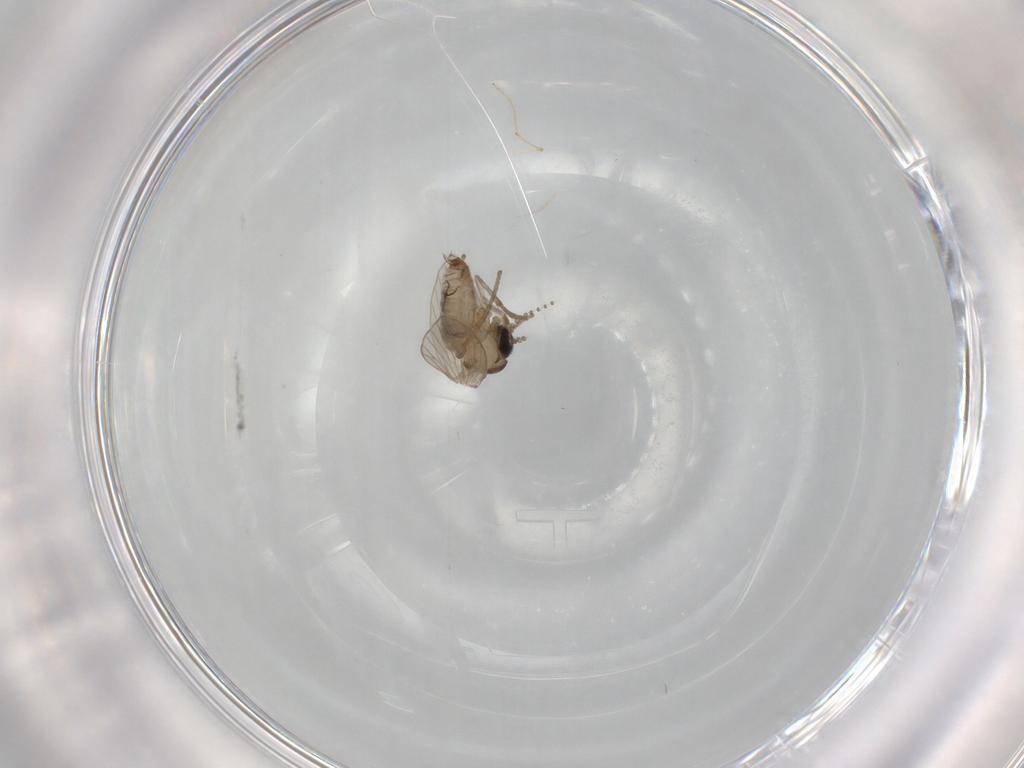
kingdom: Animalia
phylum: Arthropoda
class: Insecta
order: Diptera
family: Psychodidae
